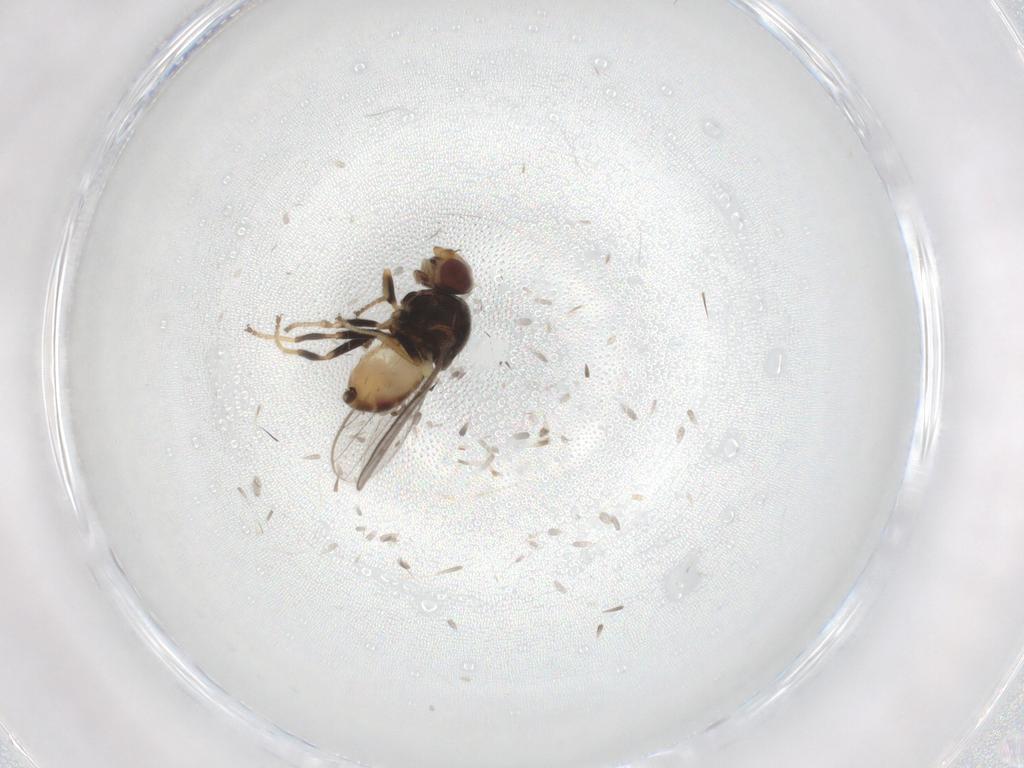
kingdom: Animalia
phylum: Arthropoda
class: Insecta
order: Diptera
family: Chloropidae
